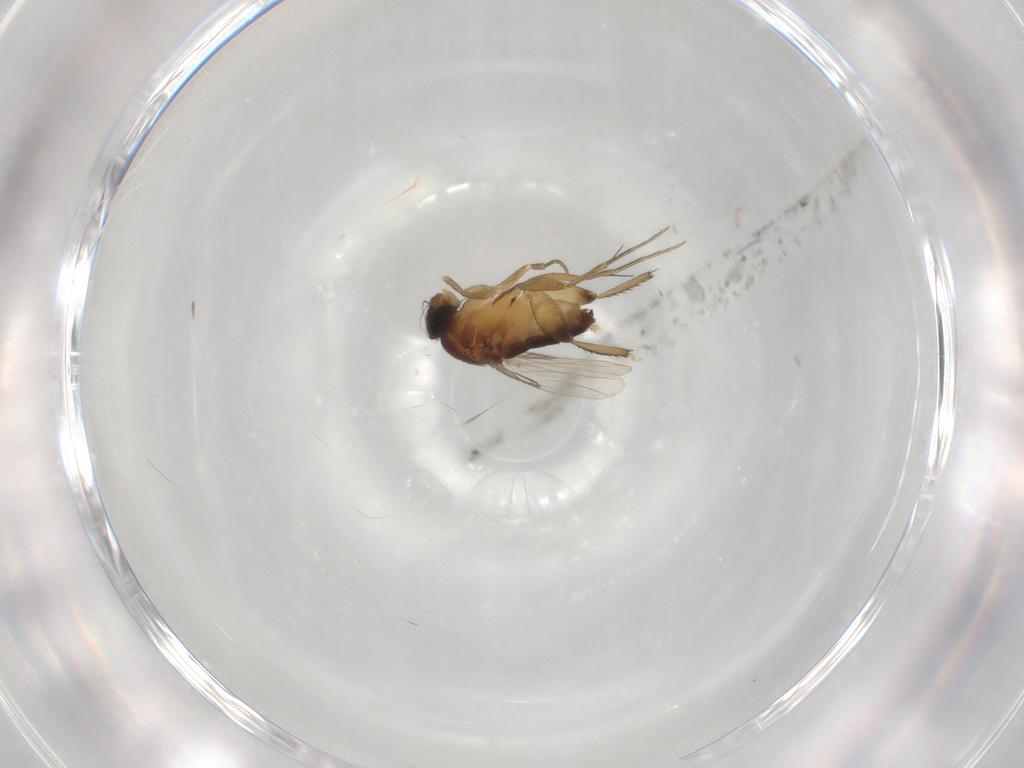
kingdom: Animalia
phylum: Arthropoda
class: Insecta
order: Diptera
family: Phoridae
